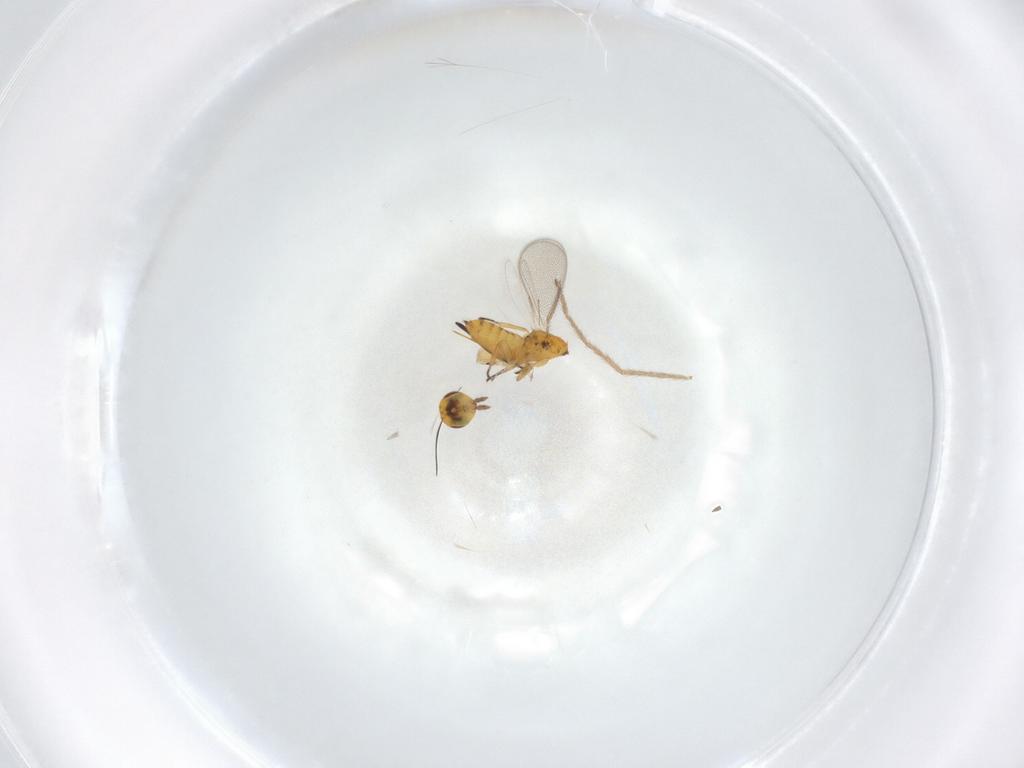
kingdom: Animalia
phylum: Arthropoda
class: Insecta
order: Hymenoptera
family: Eulophidae
